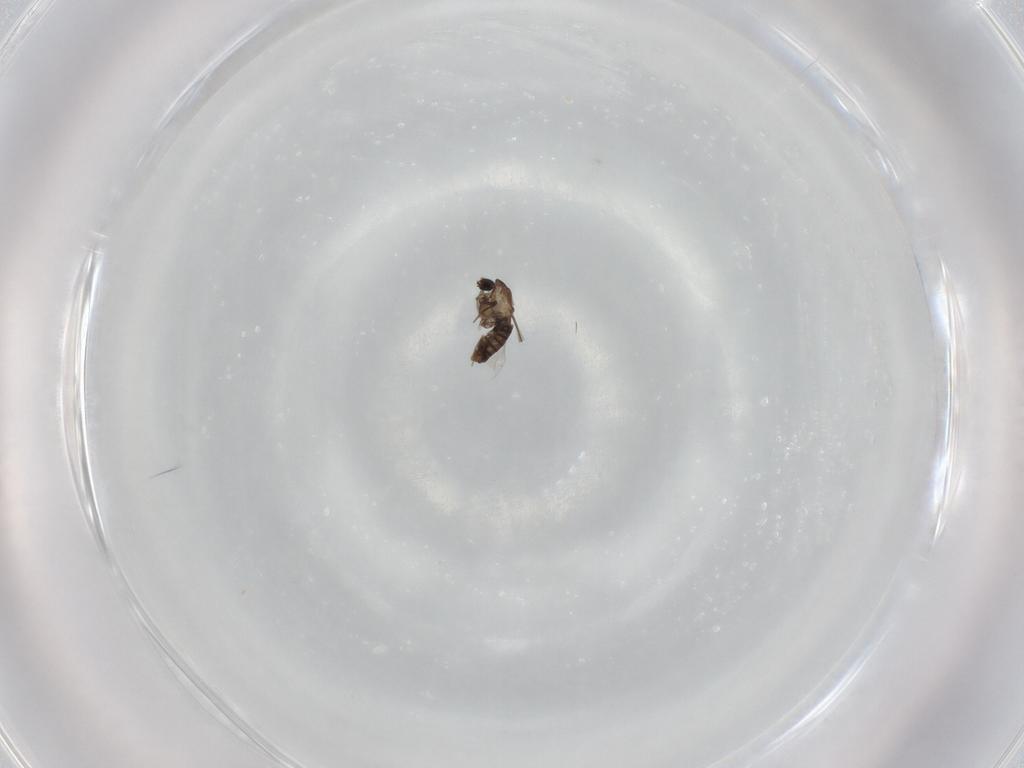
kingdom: Animalia
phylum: Arthropoda
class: Insecta
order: Diptera
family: Chironomidae
